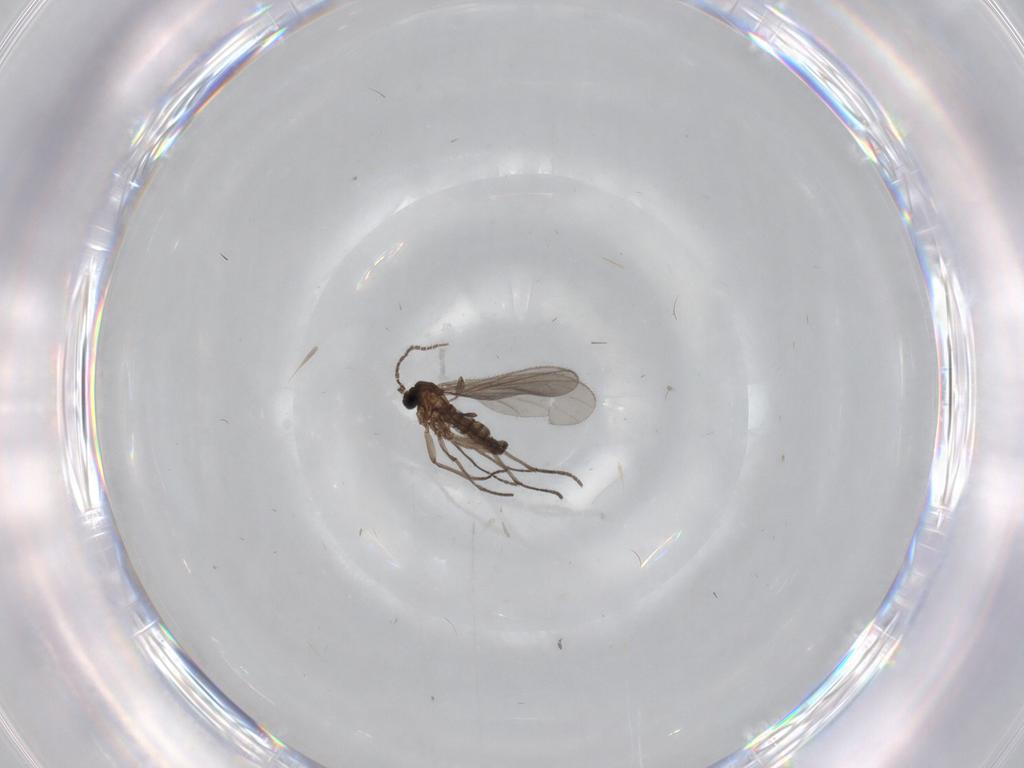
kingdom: Animalia
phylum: Arthropoda
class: Insecta
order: Diptera
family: Sciaridae
